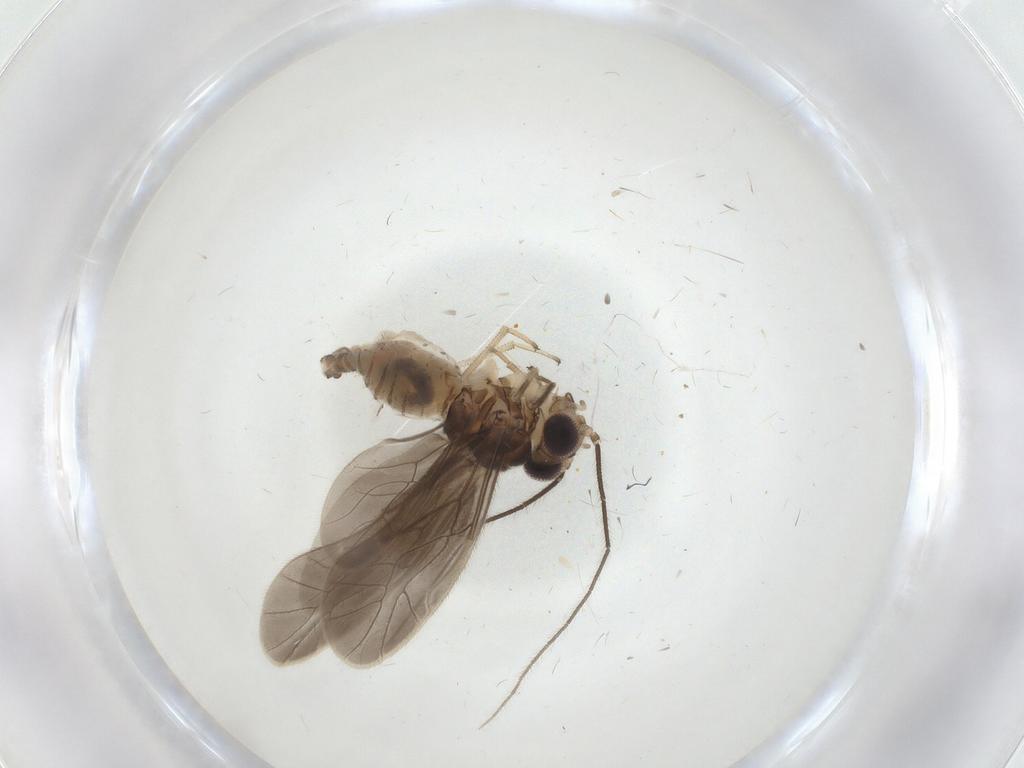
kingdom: Animalia
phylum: Arthropoda
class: Insecta
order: Psocodea
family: Caeciliusidae
